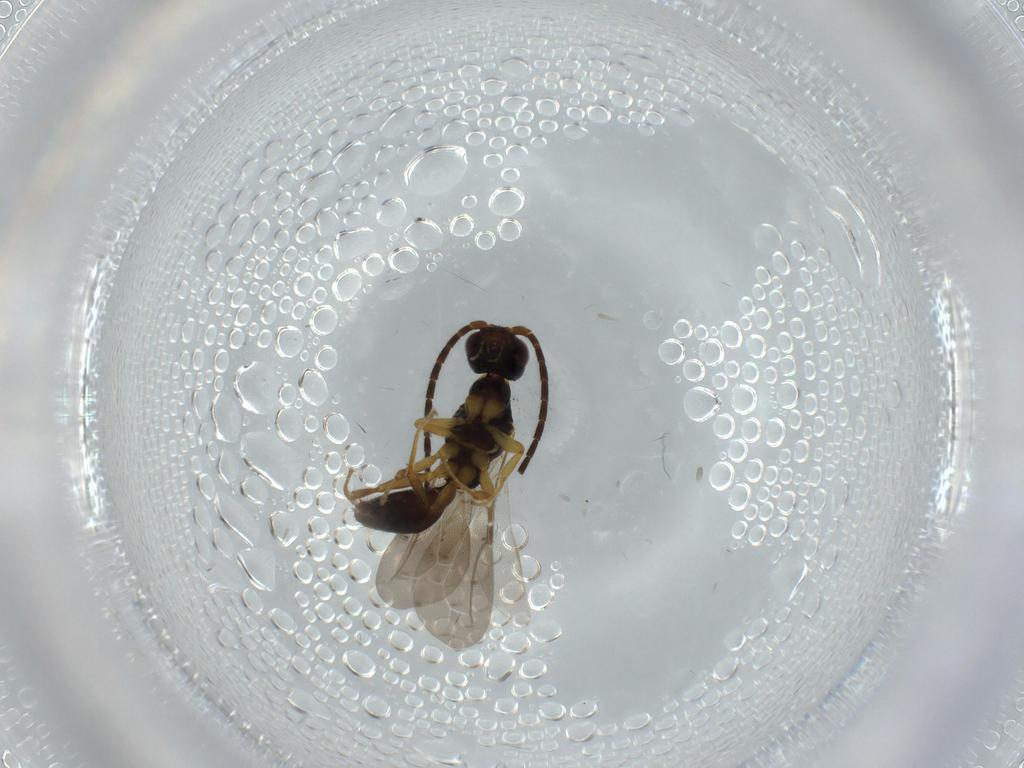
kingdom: Animalia
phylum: Arthropoda
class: Insecta
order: Hymenoptera
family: Bethylidae
